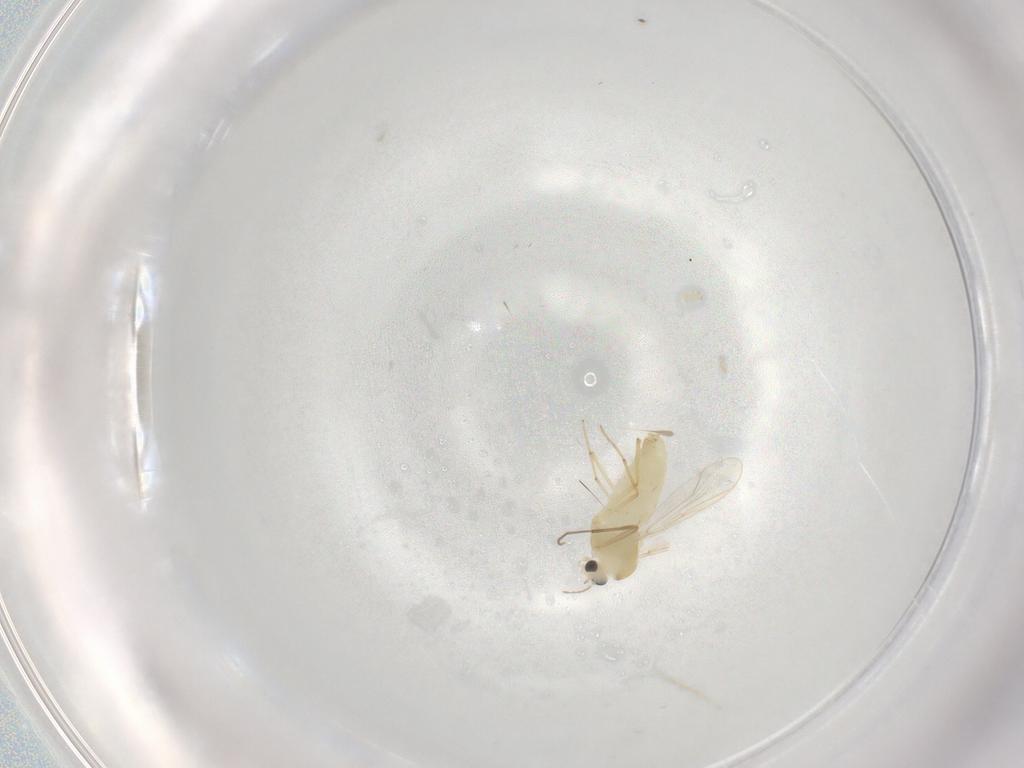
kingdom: Animalia
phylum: Arthropoda
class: Insecta
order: Diptera
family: Chironomidae
